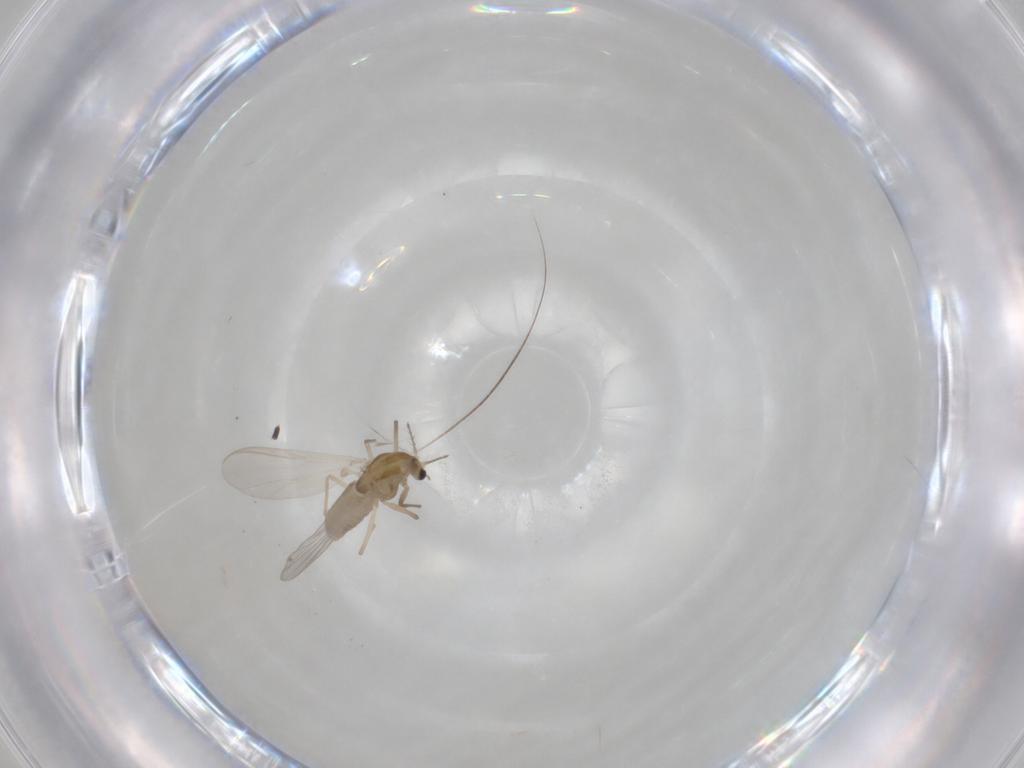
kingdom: Animalia
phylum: Arthropoda
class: Insecta
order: Diptera
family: Chironomidae
